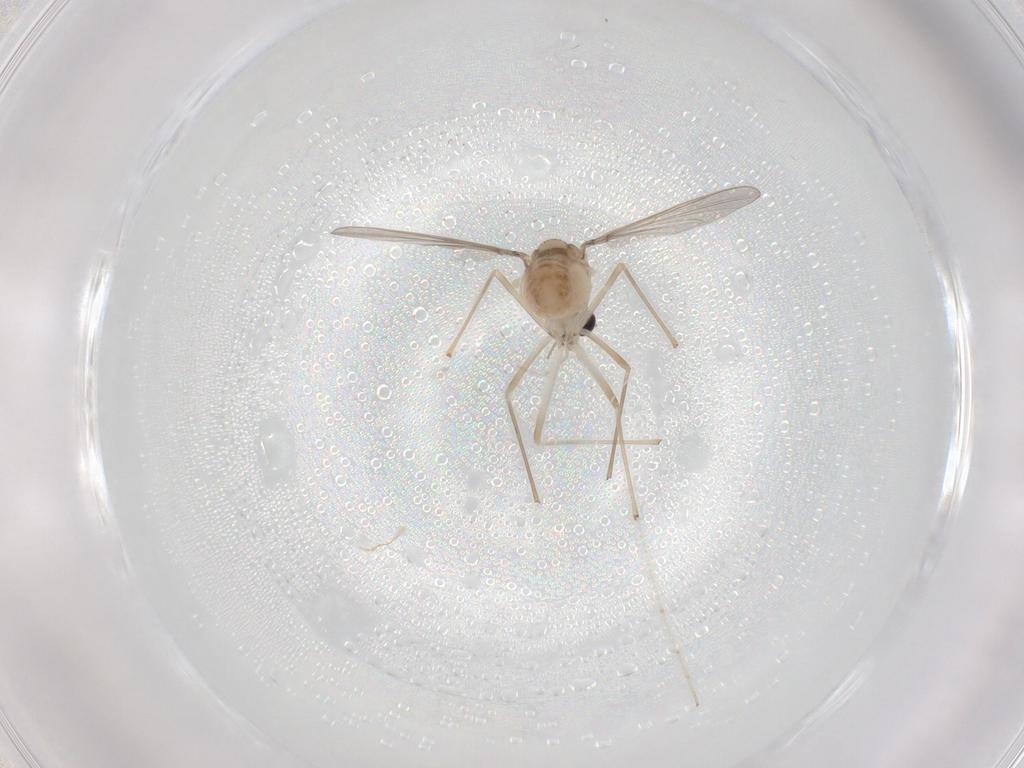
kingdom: Animalia
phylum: Arthropoda
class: Insecta
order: Diptera
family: Chironomidae
